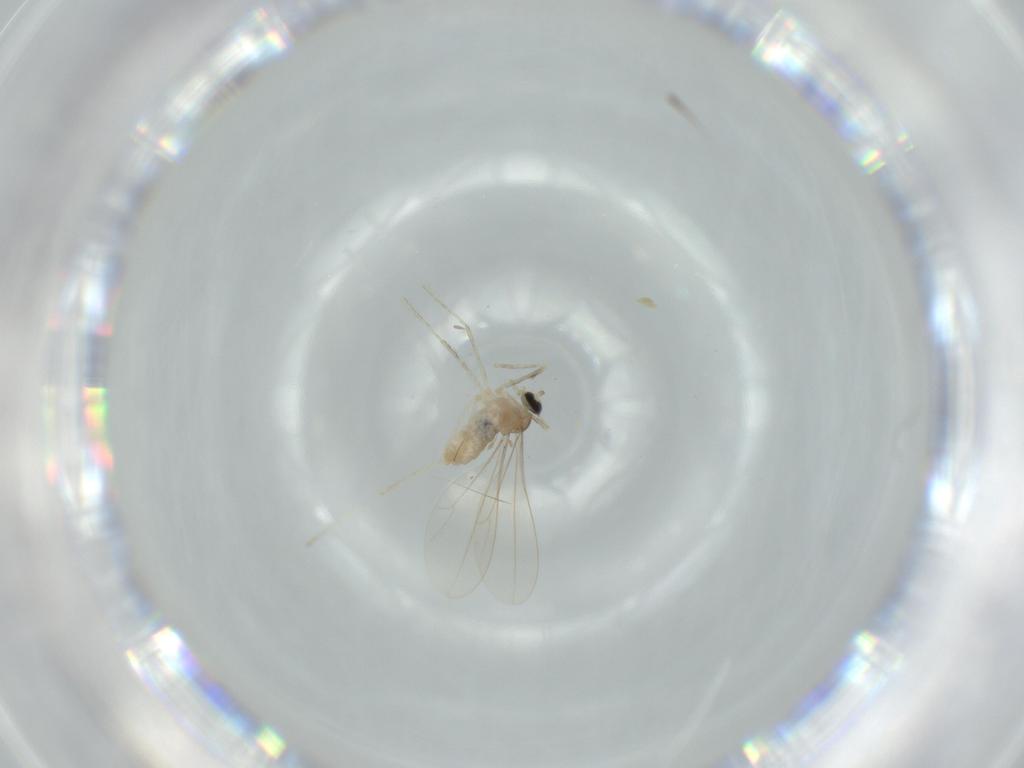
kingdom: Animalia
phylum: Arthropoda
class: Insecta
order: Diptera
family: Cecidomyiidae
